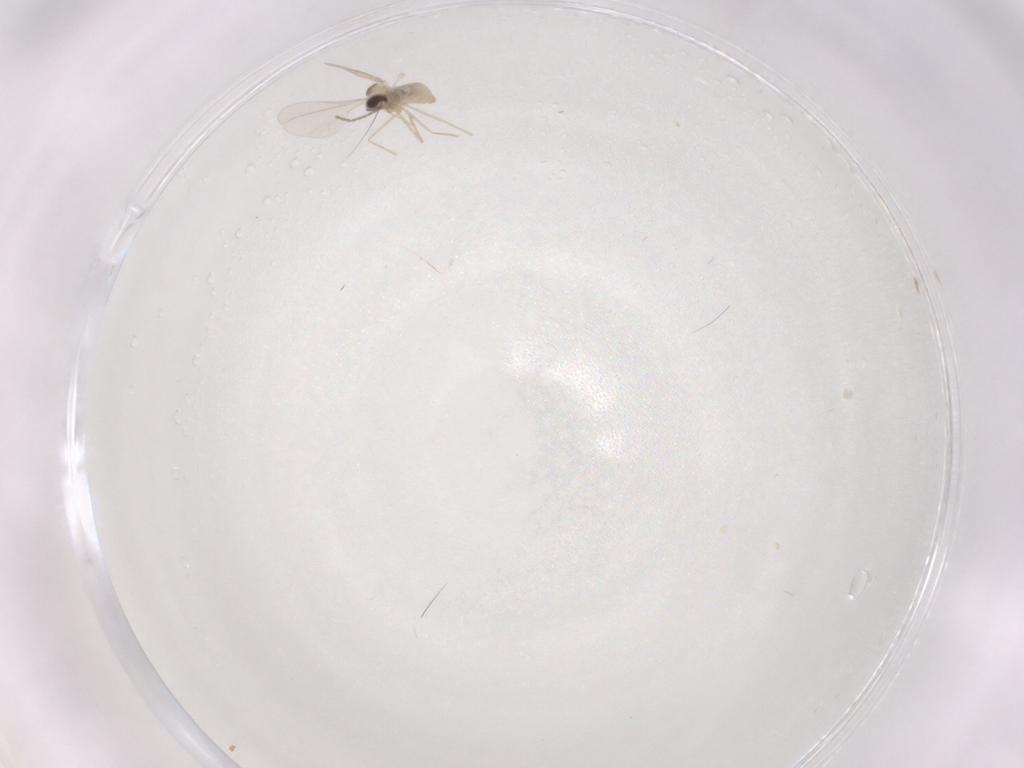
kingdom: Animalia
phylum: Arthropoda
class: Insecta
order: Diptera
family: Cecidomyiidae
